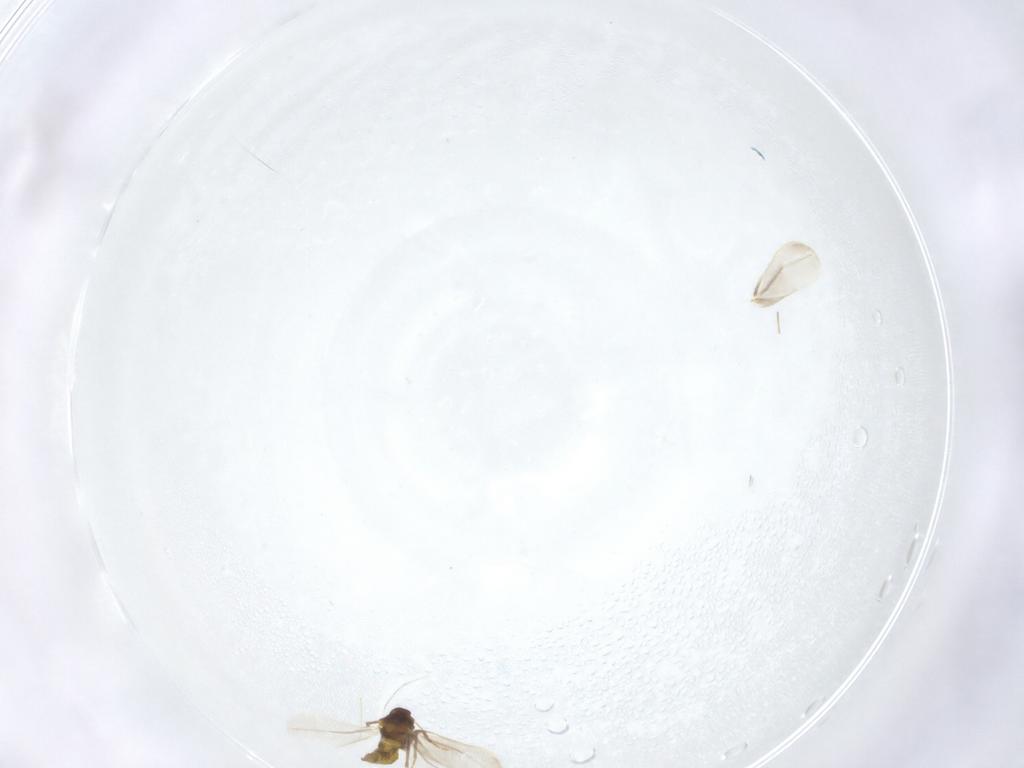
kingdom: Animalia
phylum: Arthropoda
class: Insecta
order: Hemiptera
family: Aleyrodidae
